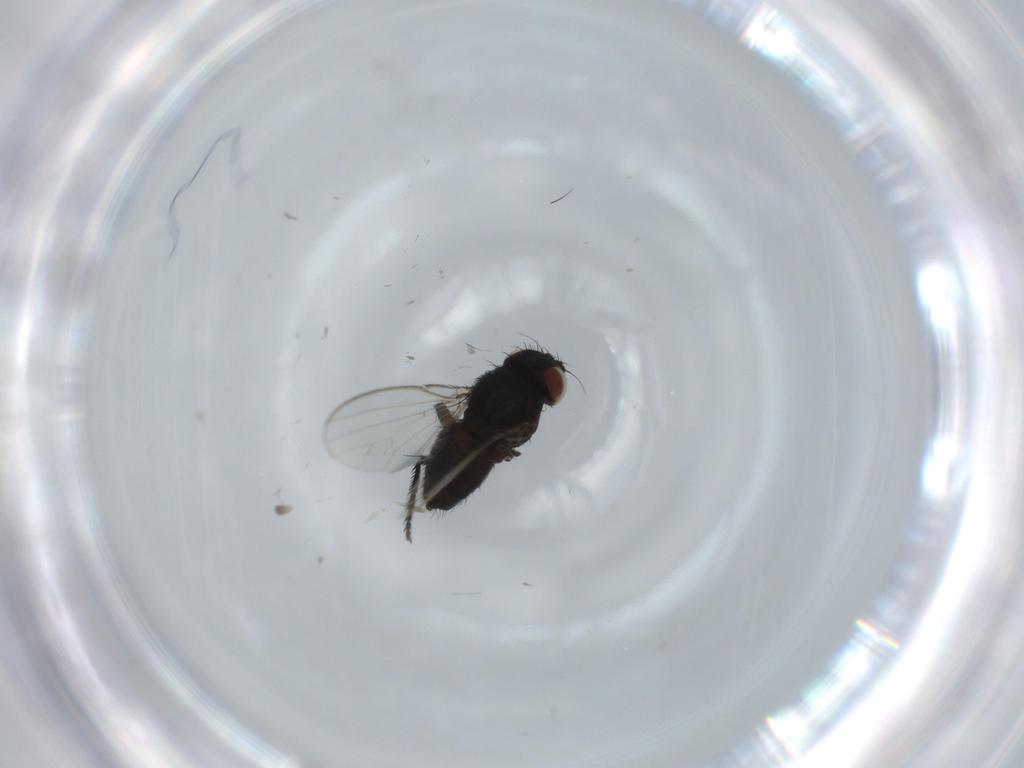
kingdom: Animalia
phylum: Arthropoda
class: Insecta
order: Diptera
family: Milichiidae
